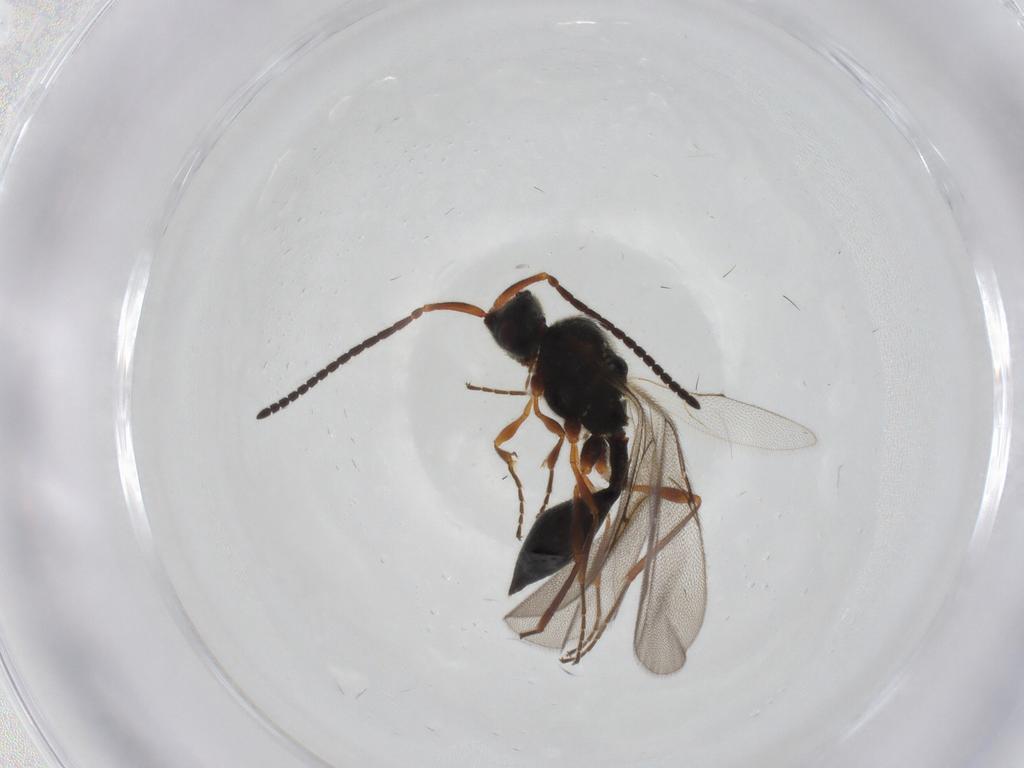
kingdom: Animalia
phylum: Arthropoda
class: Insecta
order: Hymenoptera
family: Diapriidae
